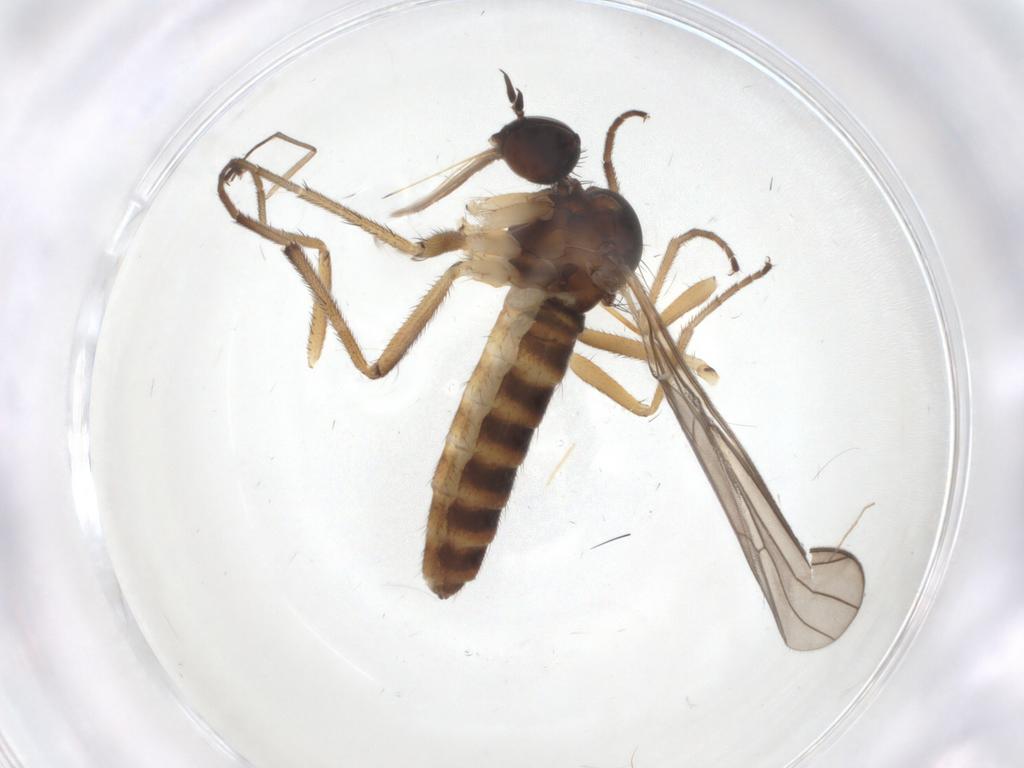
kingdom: Animalia
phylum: Arthropoda
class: Insecta
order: Diptera
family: Empididae
